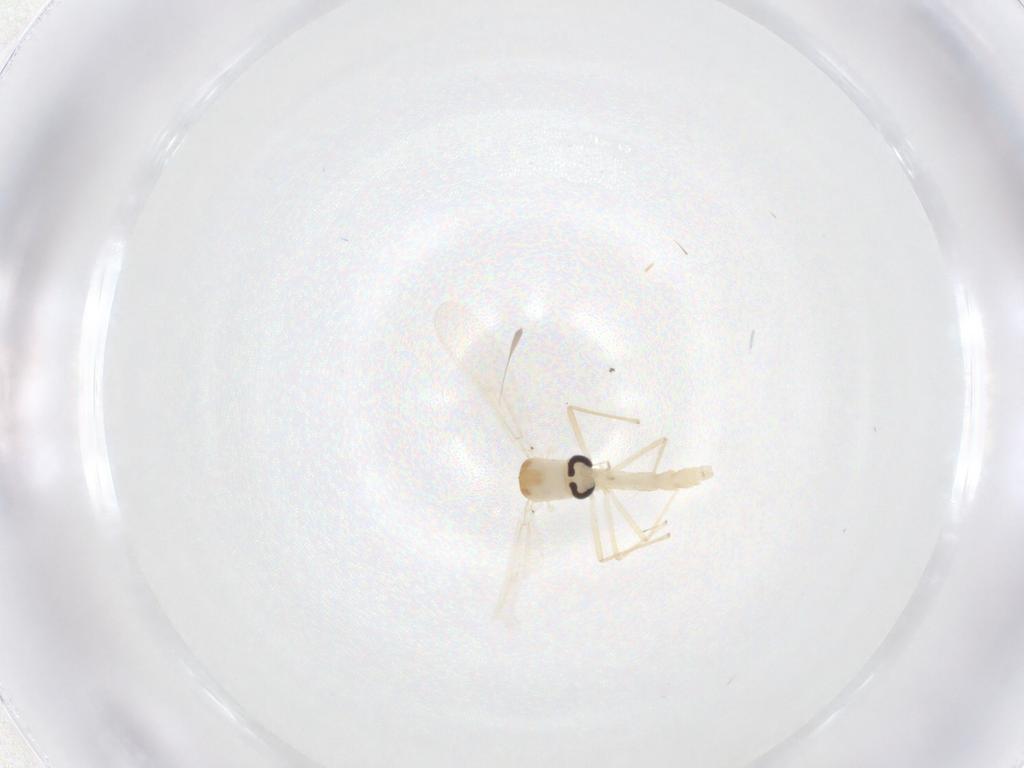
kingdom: Animalia
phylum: Arthropoda
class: Insecta
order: Diptera
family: Chironomidae
